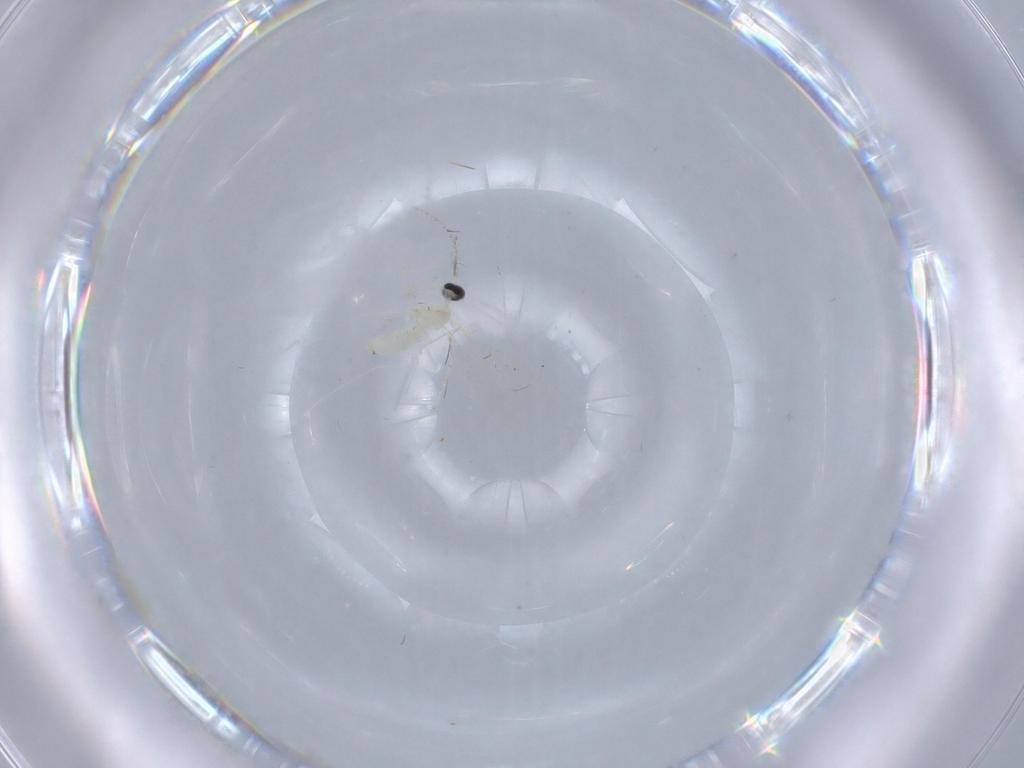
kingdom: Animalia
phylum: Arthropoda
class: Insecta
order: Diptera
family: Cecidomyiidae
